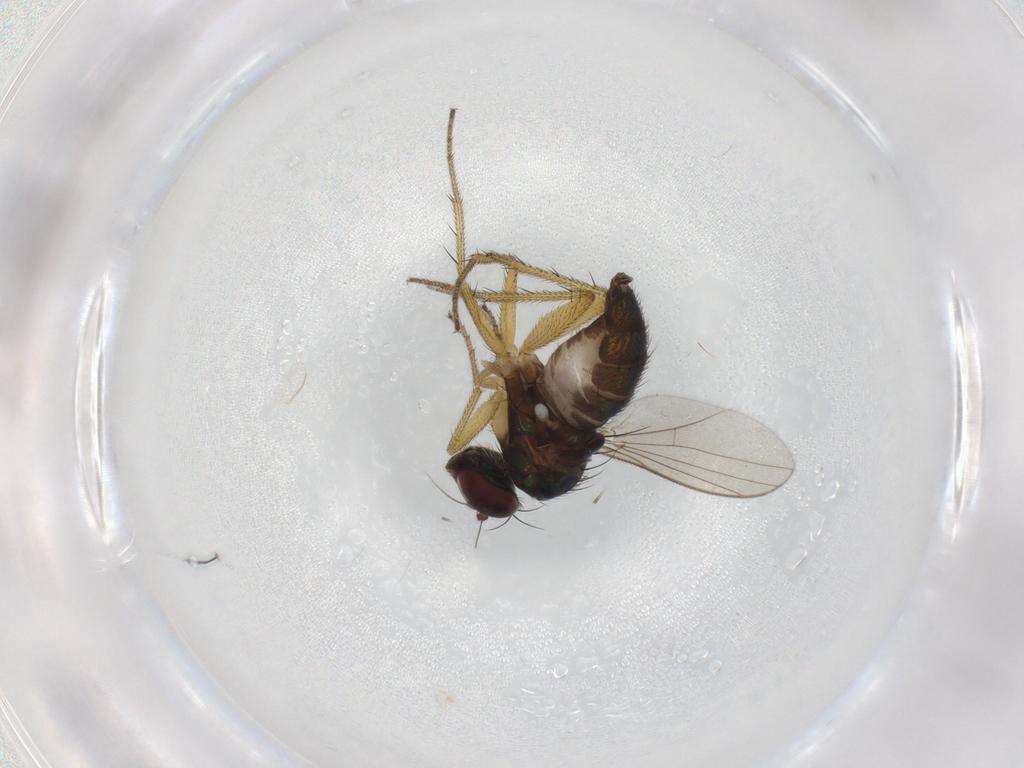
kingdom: Animalia
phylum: Arthropoda
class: Insecta
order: Diptera
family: Dolichopodidae
